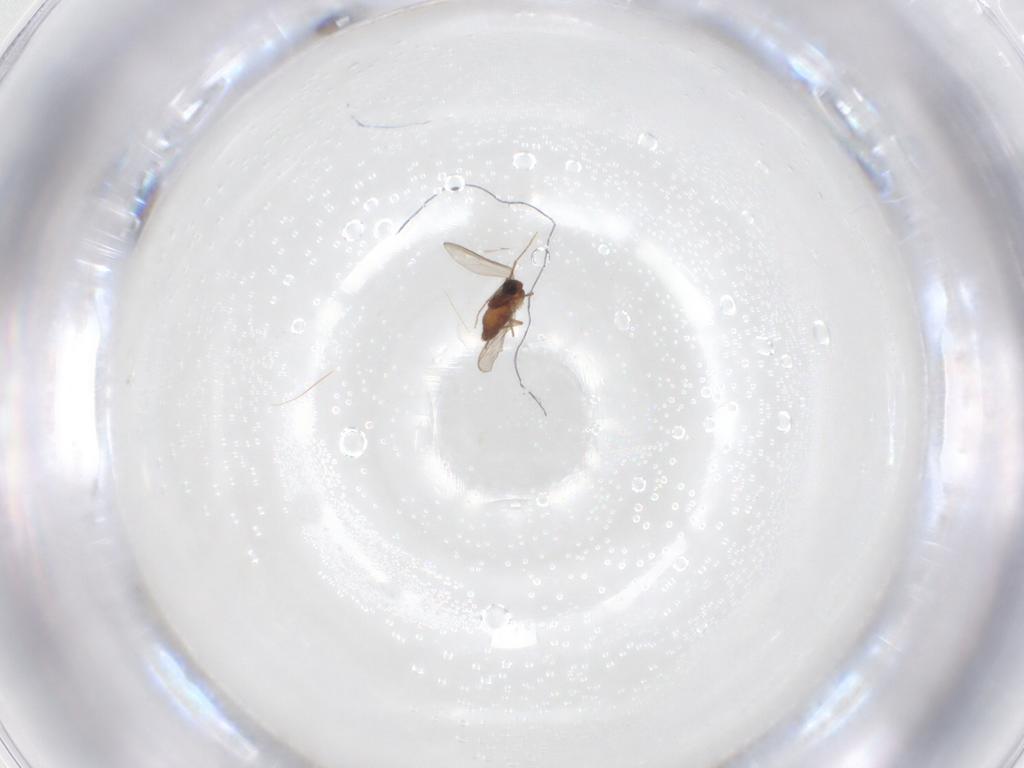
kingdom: Animalia
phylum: Arthropoda
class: Insecta
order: Diptera
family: Chironomidae
